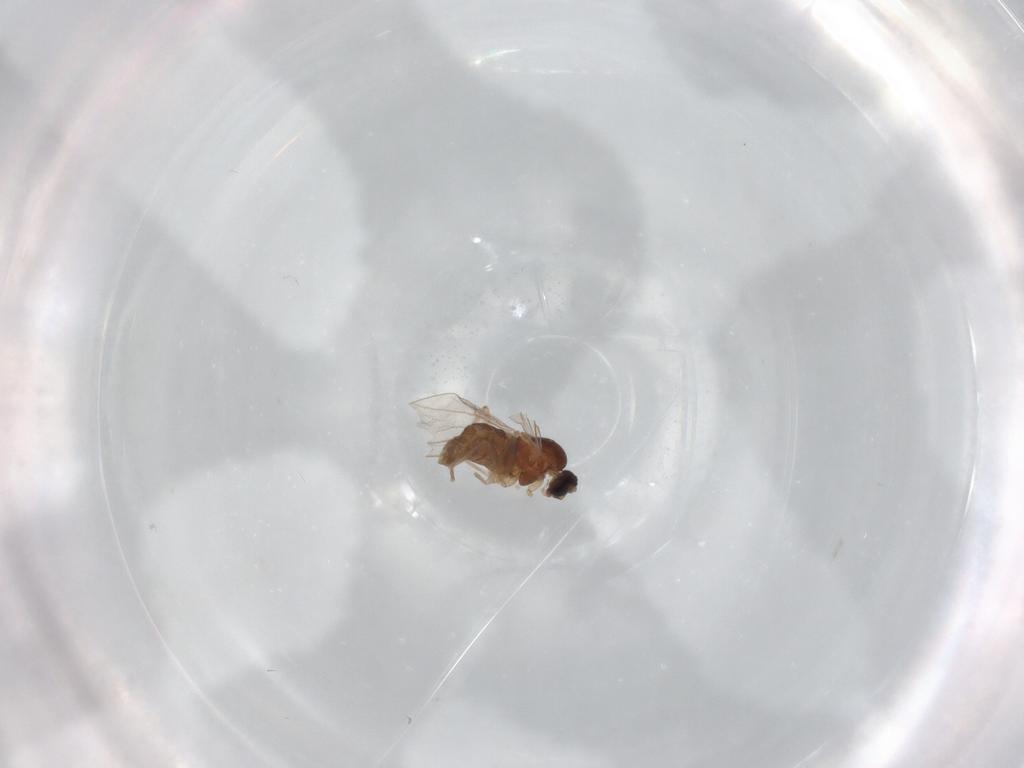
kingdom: Animalia
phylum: Arthropoda
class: Insecta
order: Diptera
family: Cecidomyiidae
